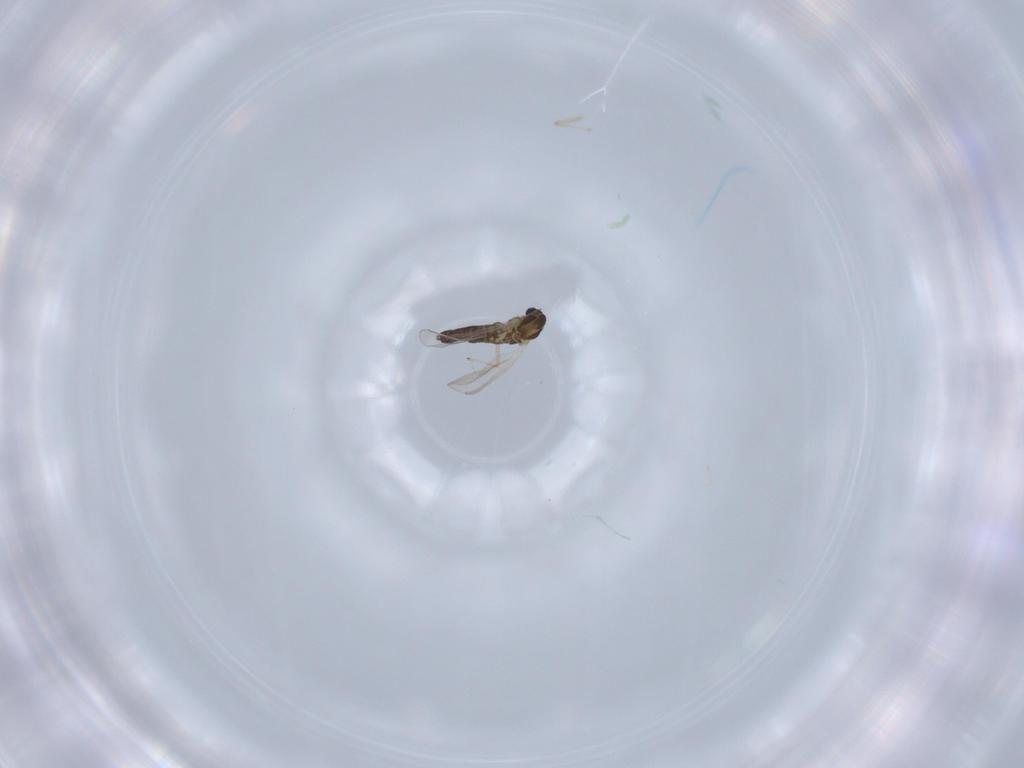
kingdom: Animalia
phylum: Arthropoda
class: Insecta
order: Diptera
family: Chironomidae
